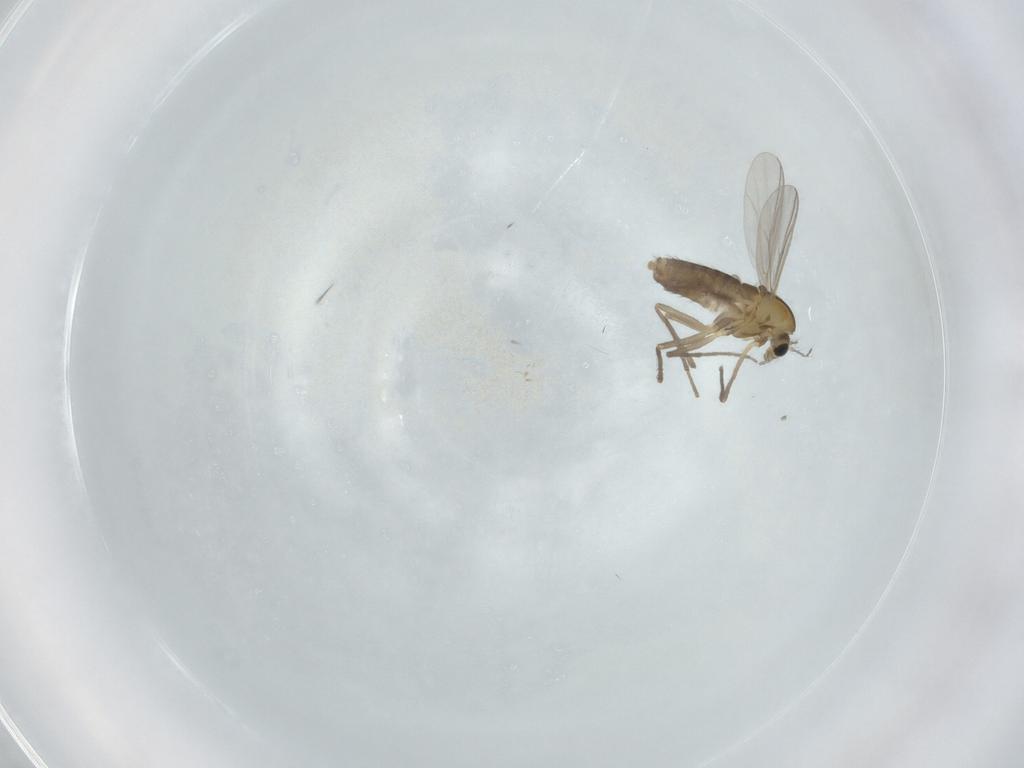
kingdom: Animalia
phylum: Arthropoda
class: Insecta
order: Diptera
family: Chironomidae
